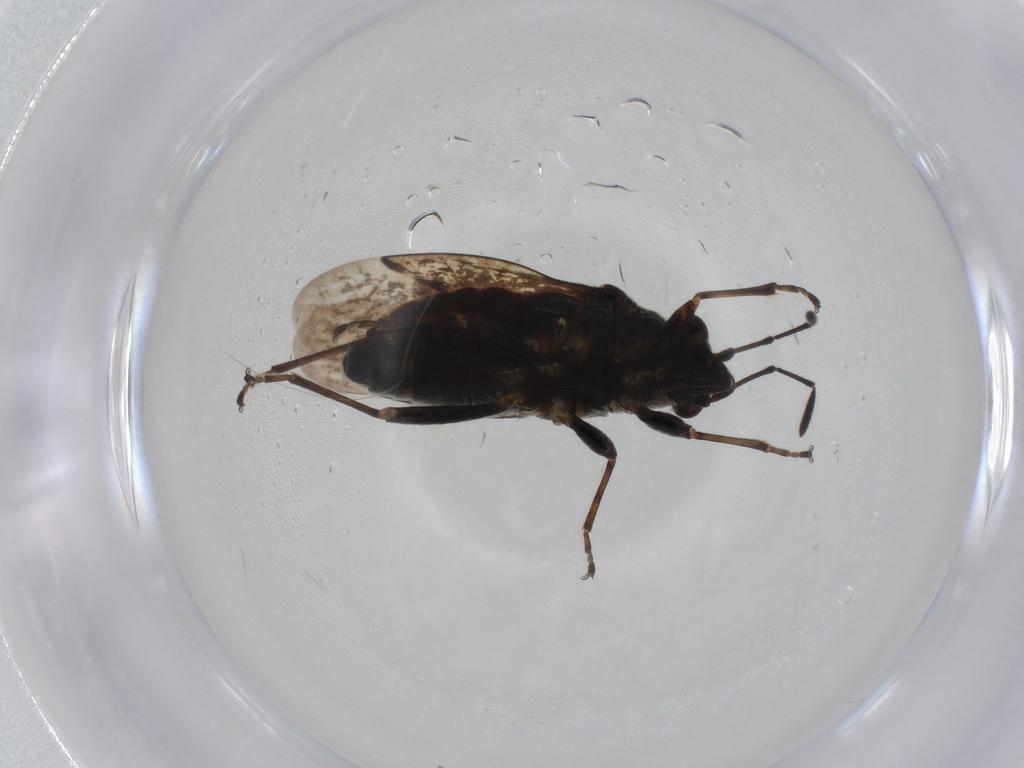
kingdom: Animalia
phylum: Arthropoda
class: Insecta
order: Hemiptera
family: Lygaeidae
